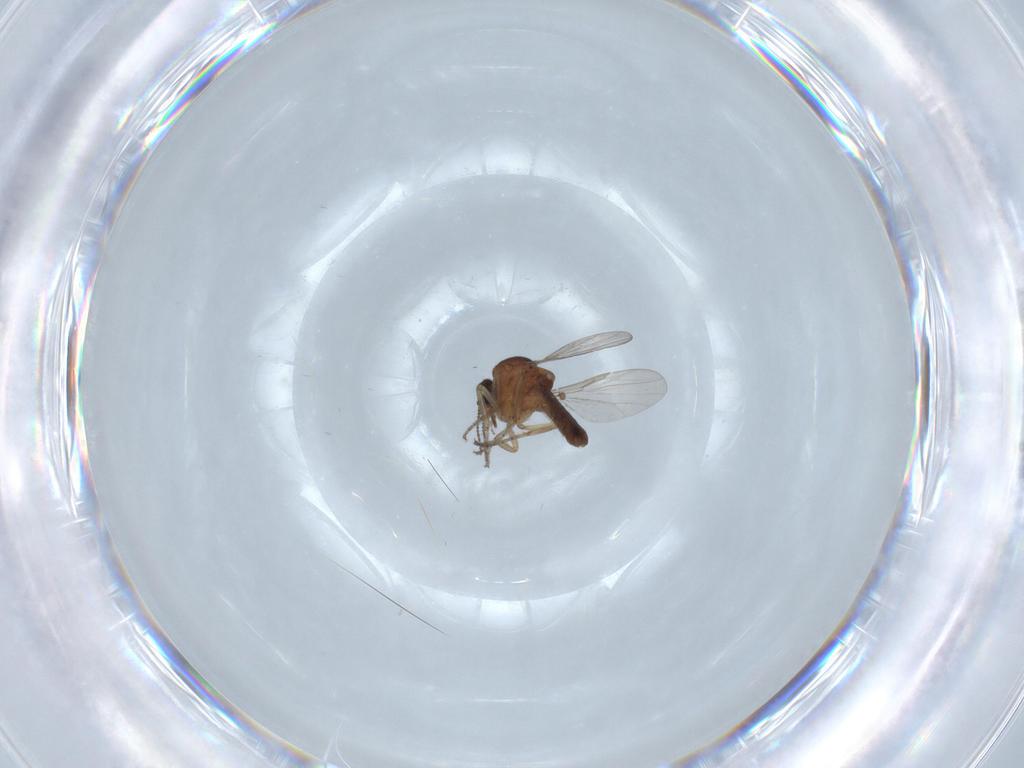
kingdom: Animalia
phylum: Arthropoda
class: Insecta
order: Diptera
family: Ceratopogonidae
